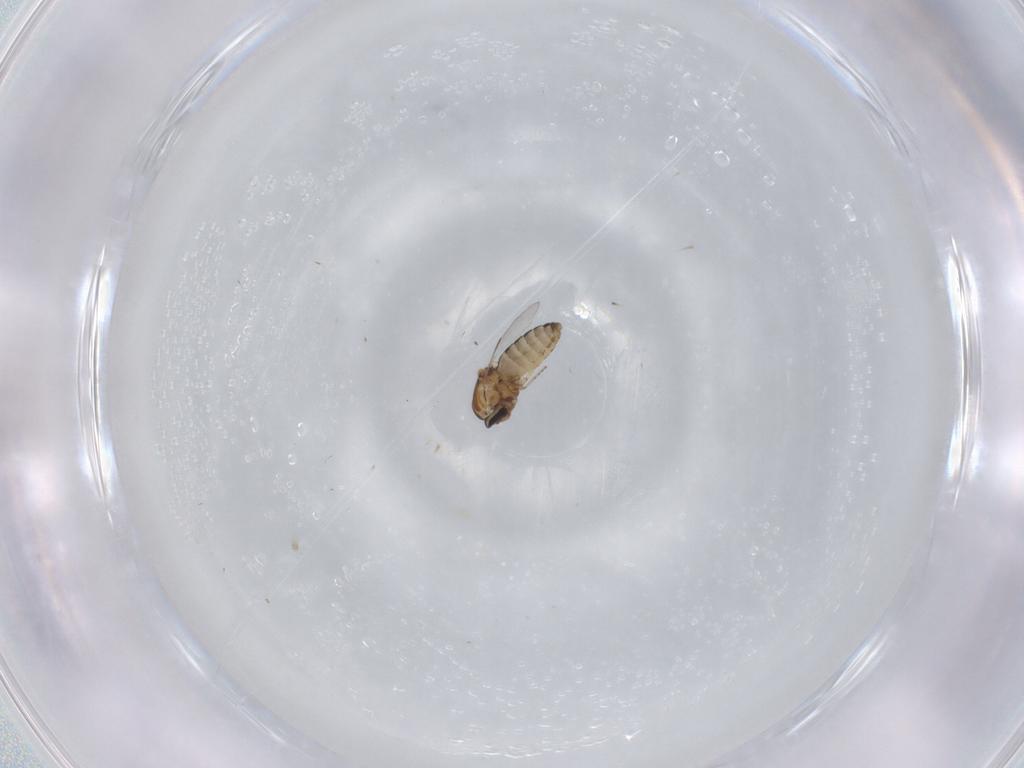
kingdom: Animalia
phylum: Arthropoda
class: Insecta
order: Diptera
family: Ceratopogonidae
